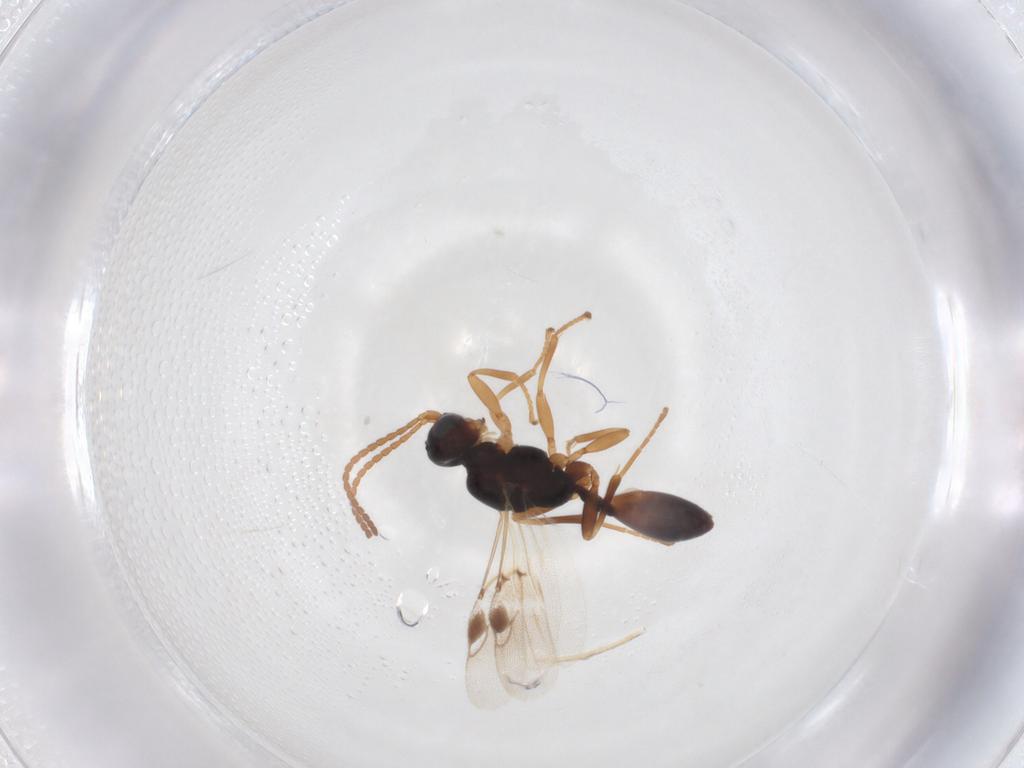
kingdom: Animalia
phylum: Arthropoda
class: Insecta
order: Hymenoptera
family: Braconidae
